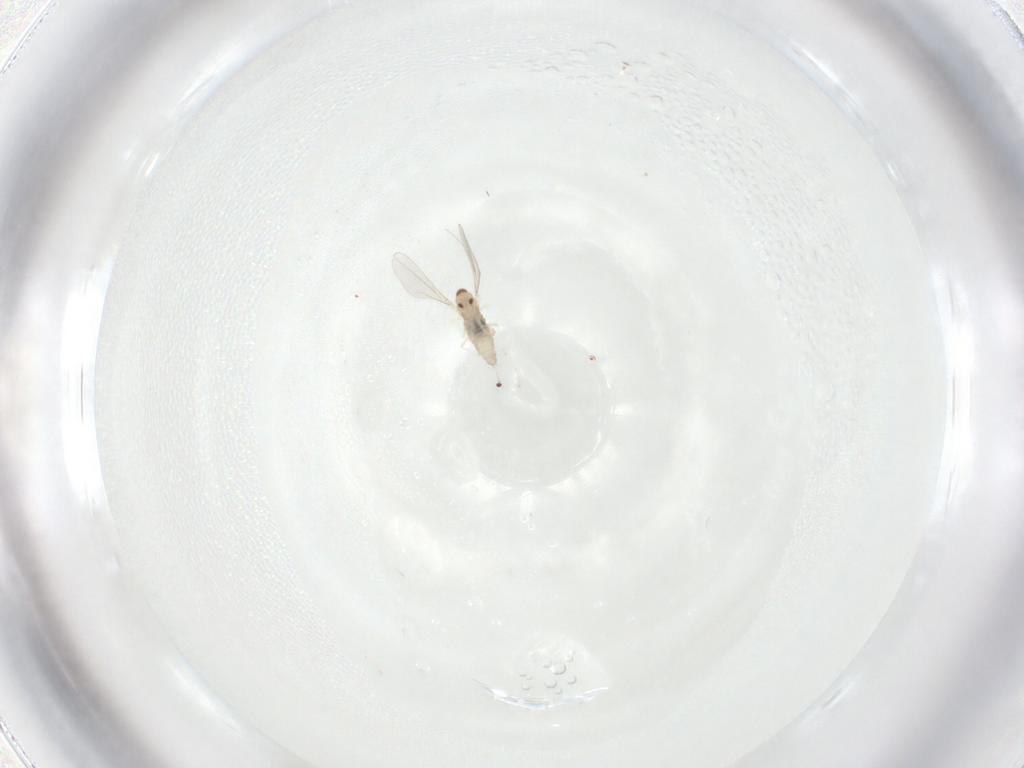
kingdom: Animalia
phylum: Arthropoda
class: Insecta
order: Diptera
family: Cecidomyiidae
